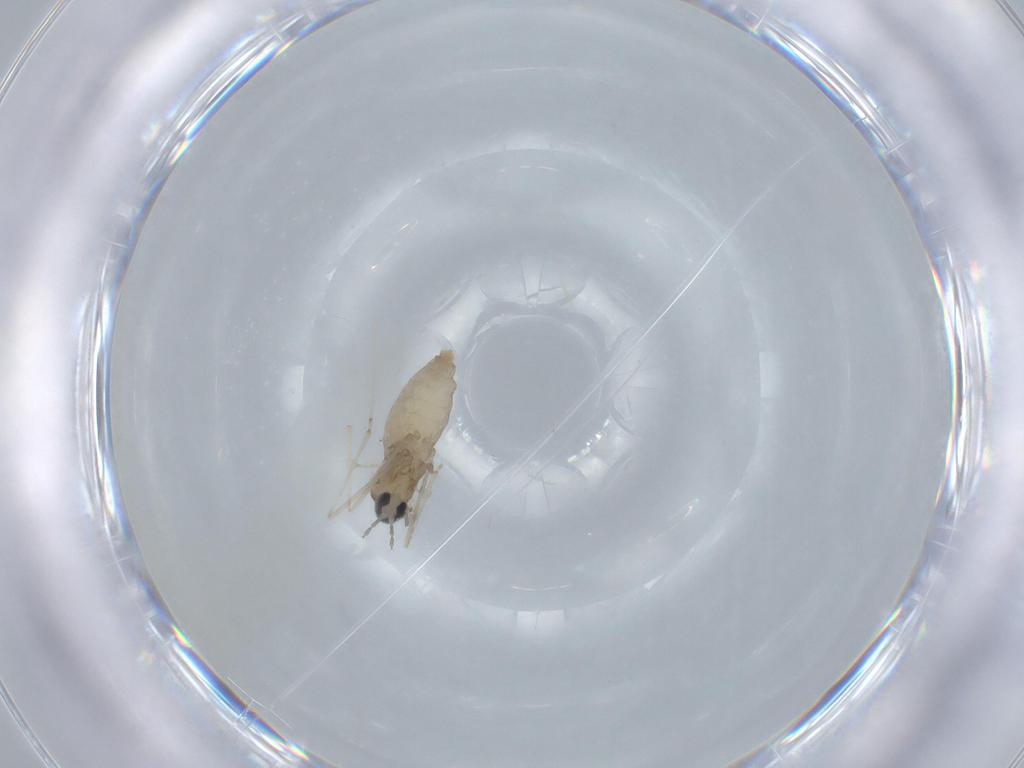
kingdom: Animalia
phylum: Arthropoda
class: Insecta
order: Diptera
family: Cecidomyiidae
